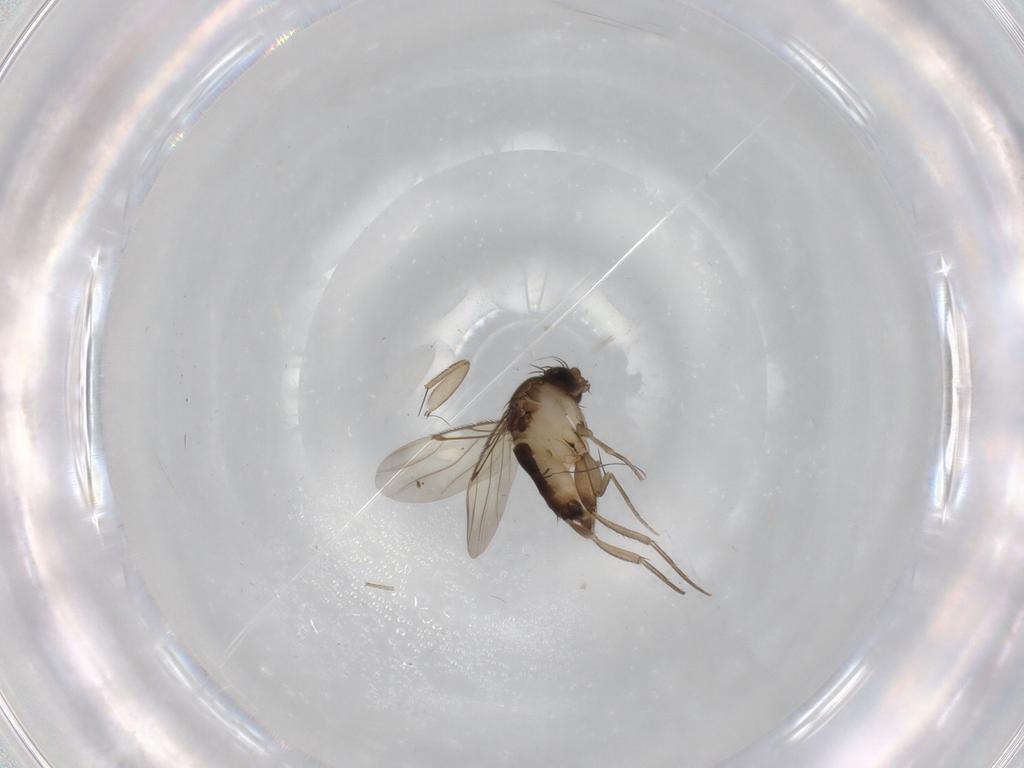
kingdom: Animalia
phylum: Arthropoda
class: Insecta
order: Diptera
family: Phoridae
